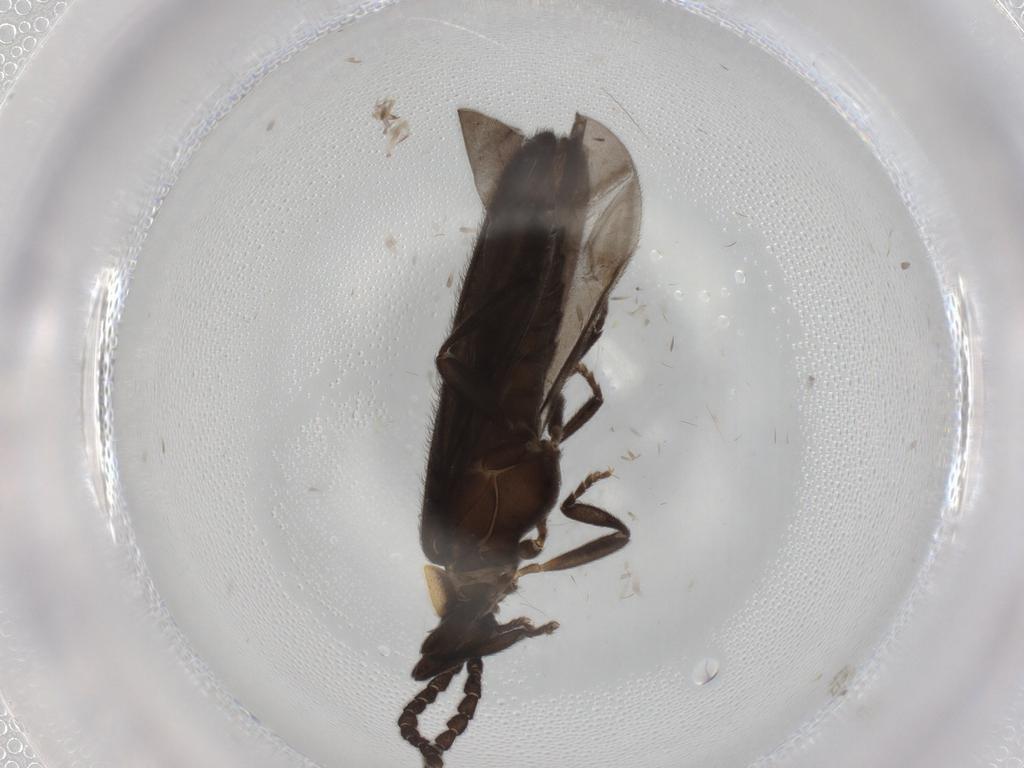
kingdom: Animalia
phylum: Arthropoda
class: Insecta
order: Coleoptera
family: Lycidae
